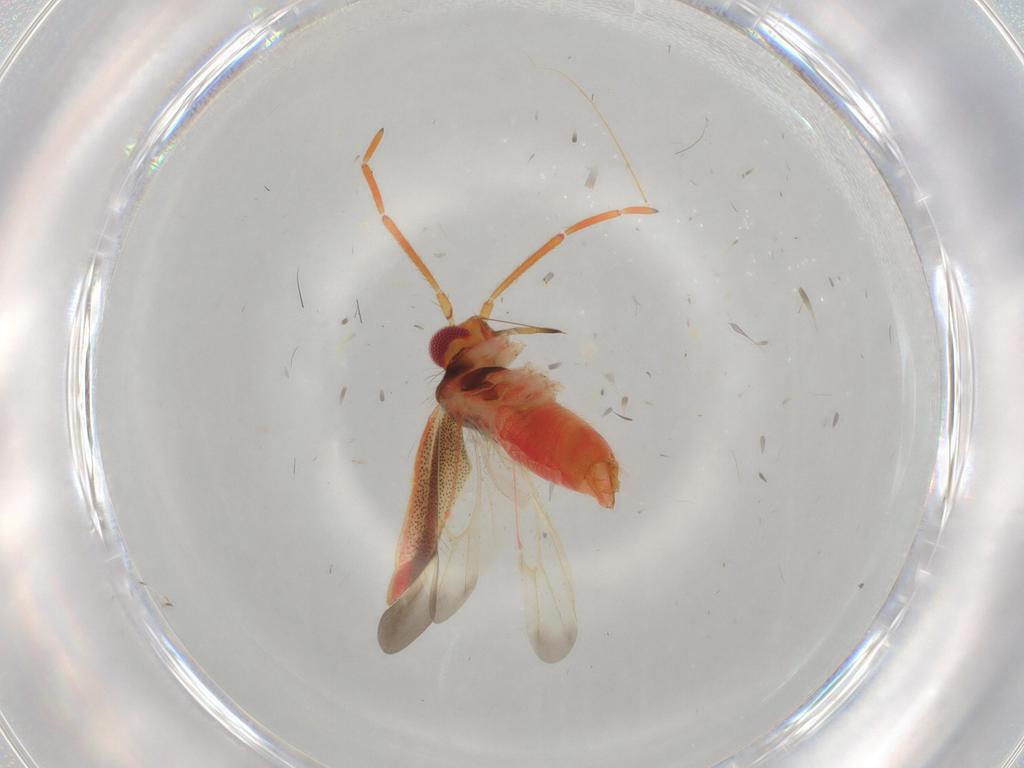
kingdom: Animalia
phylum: Arthropoda
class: Insecta
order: Hemiptera
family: Miridae
